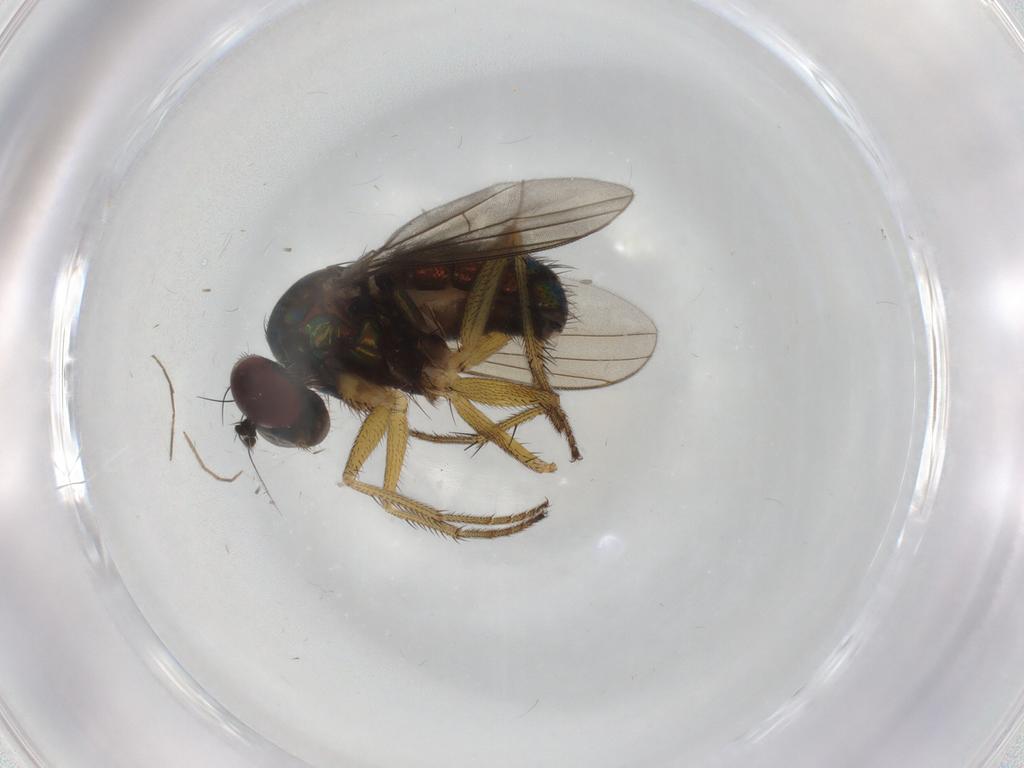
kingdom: Animalia
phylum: Arthropoda
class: Insecta
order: Diptera
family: Dolichopodidae
